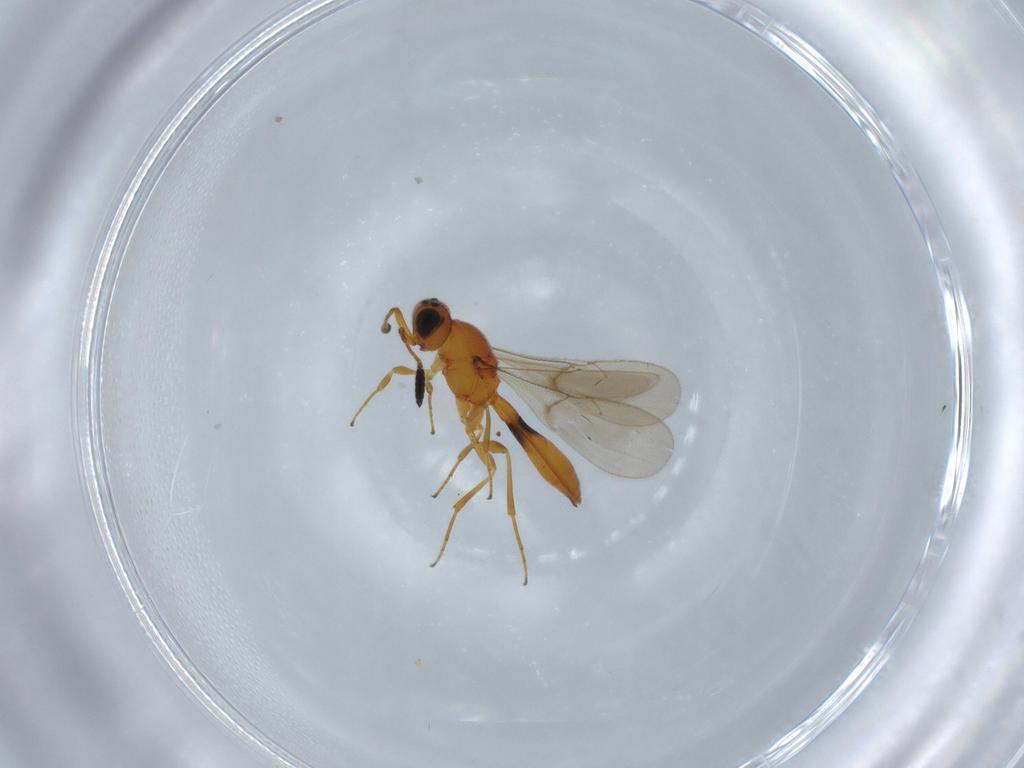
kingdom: Animalia
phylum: Arthropoda
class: Insecta
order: Hymenoptera
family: Scelionidae
